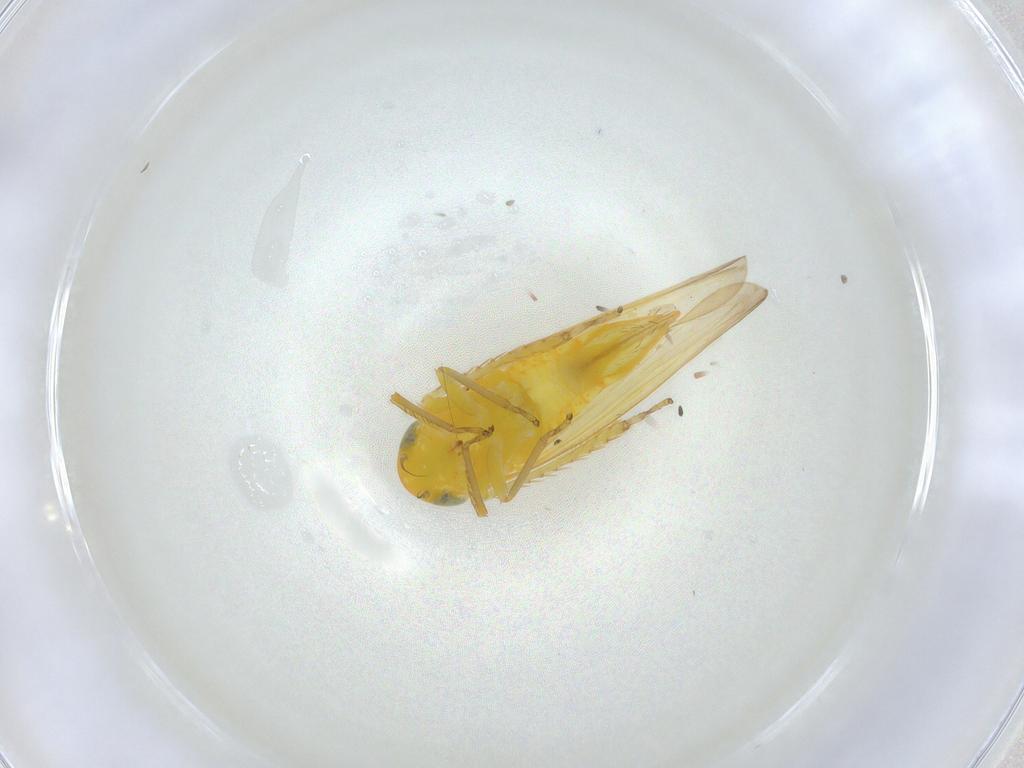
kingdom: Animalia
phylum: Arthropoda
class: Insecta
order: Hemiptera
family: Cicadellidae
